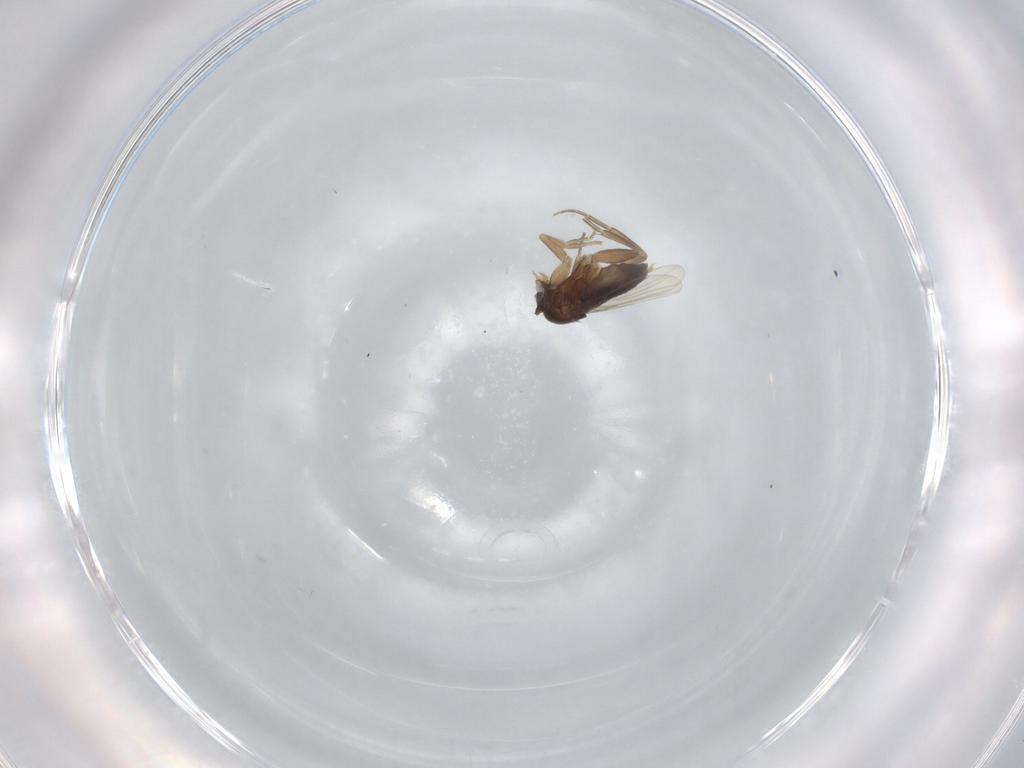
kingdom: Animalia
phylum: Arthropoda
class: Insecta
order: Diptera
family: Phoridae
